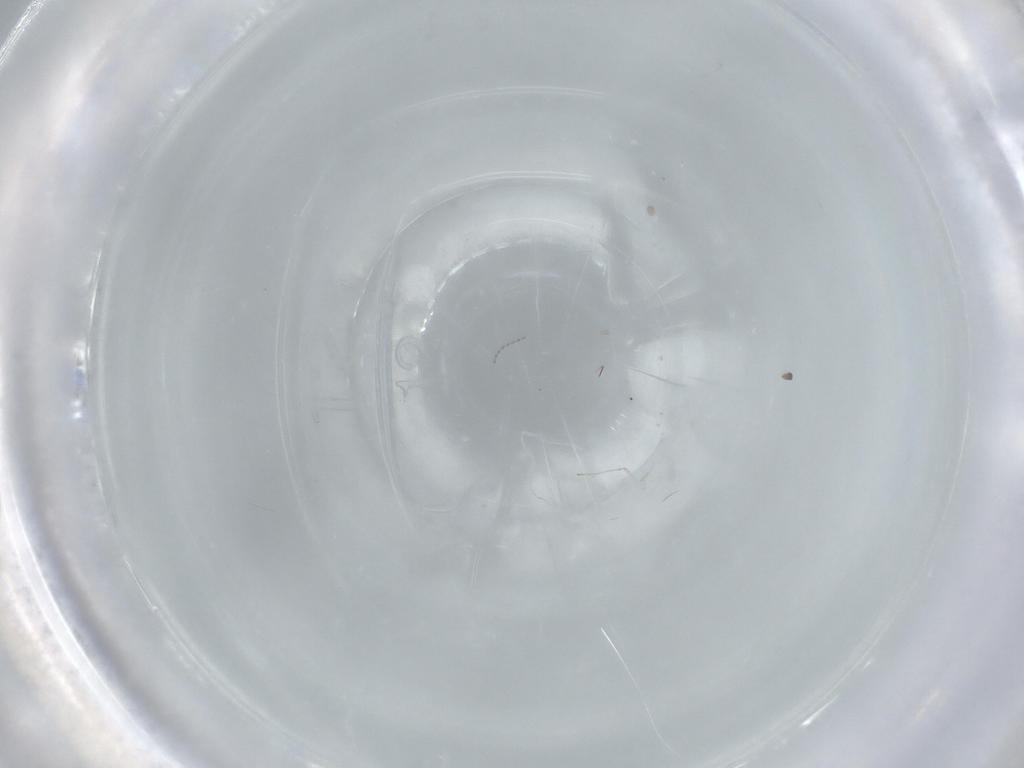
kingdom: Animalia
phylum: Arthropoda
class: Insecta
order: Diptera
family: Cecidomyiidae
